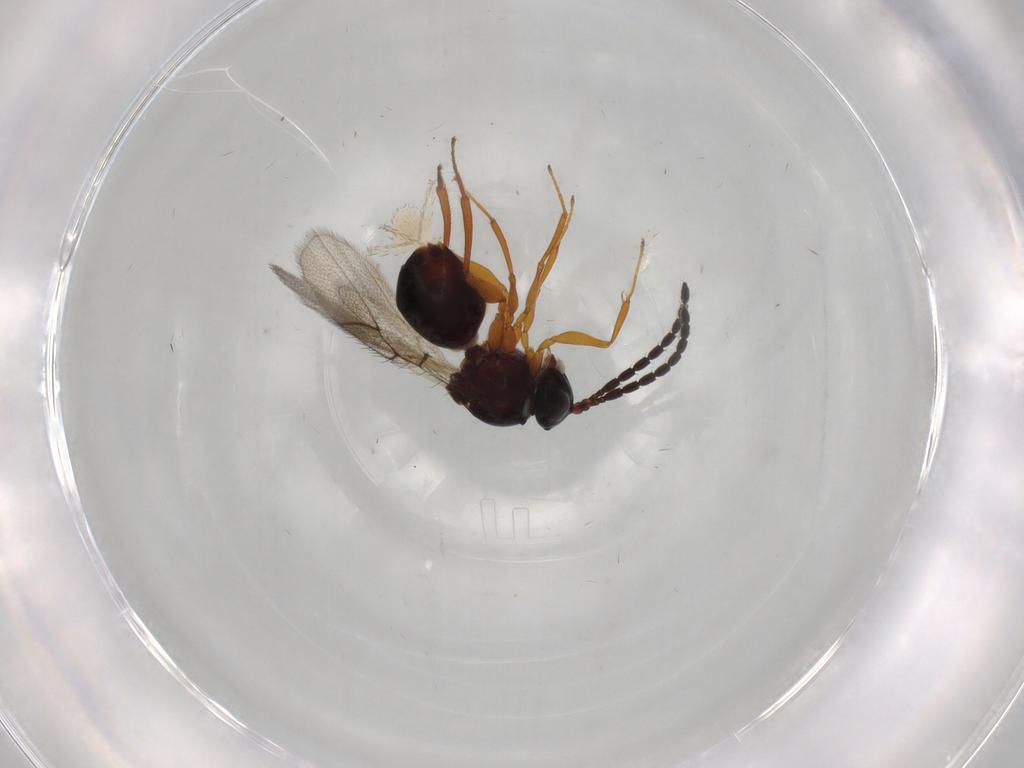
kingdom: Animalia
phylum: Arthropoda
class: Insecta
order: Hymenoptera
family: Figitidae
